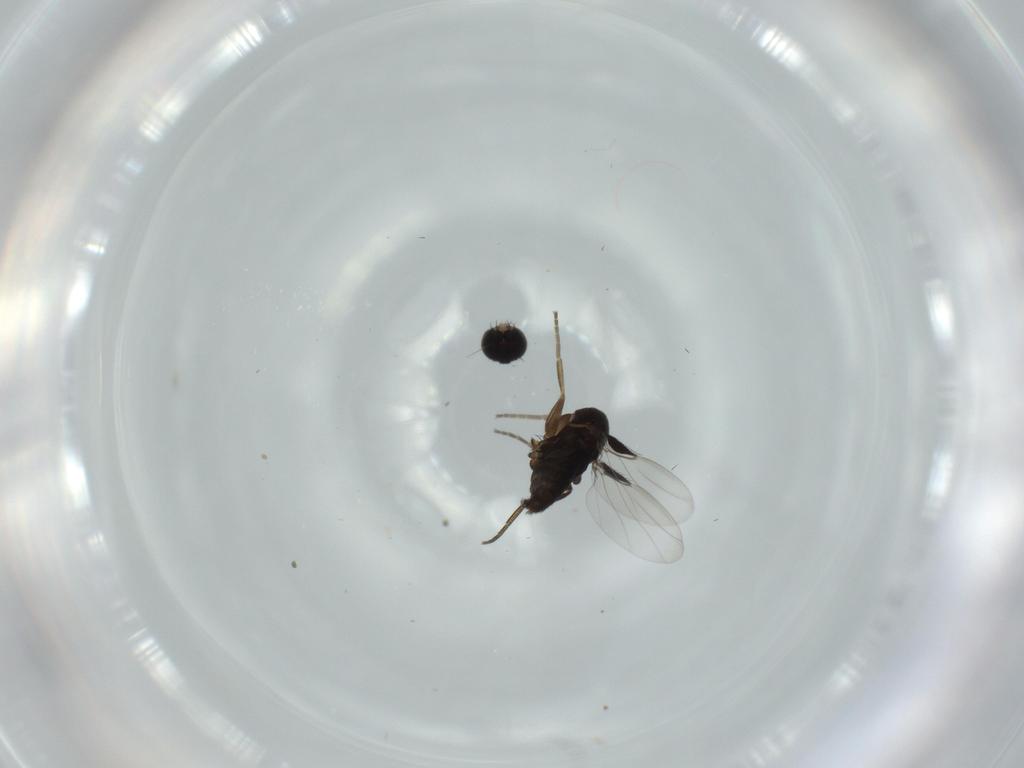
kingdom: Animalia
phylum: Arthropoda
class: Insecta
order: Diptera
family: Phoridae
